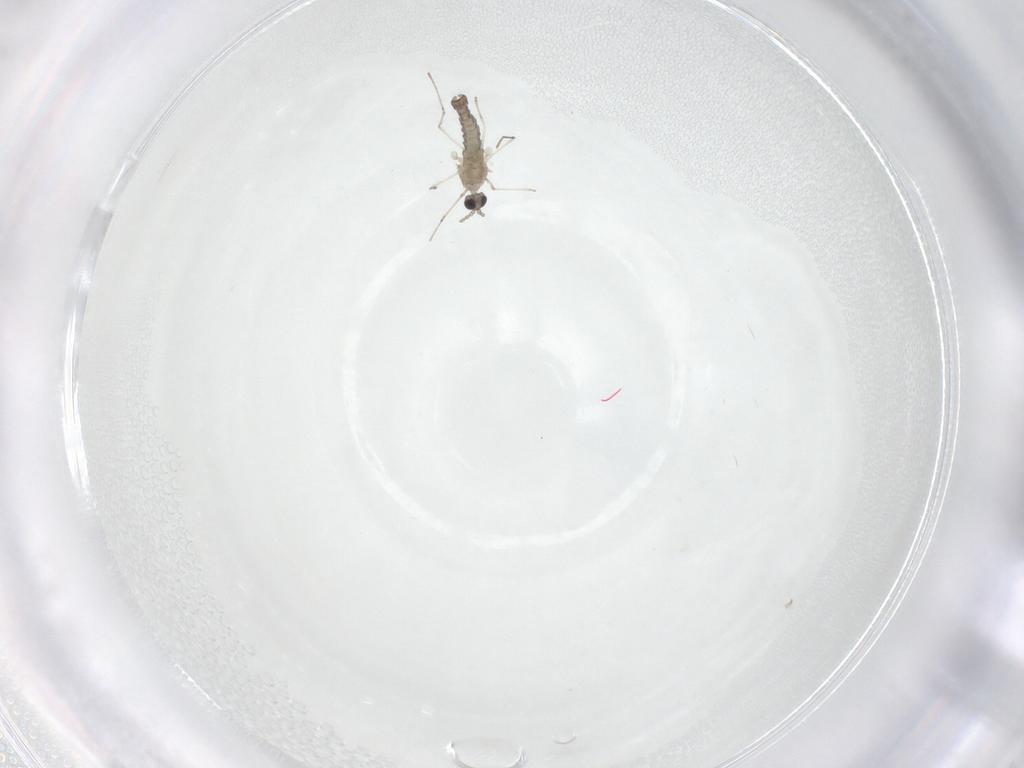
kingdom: Animalia
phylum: Arthropoda
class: Insecta
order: Diptera
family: Cecidomyiidae
